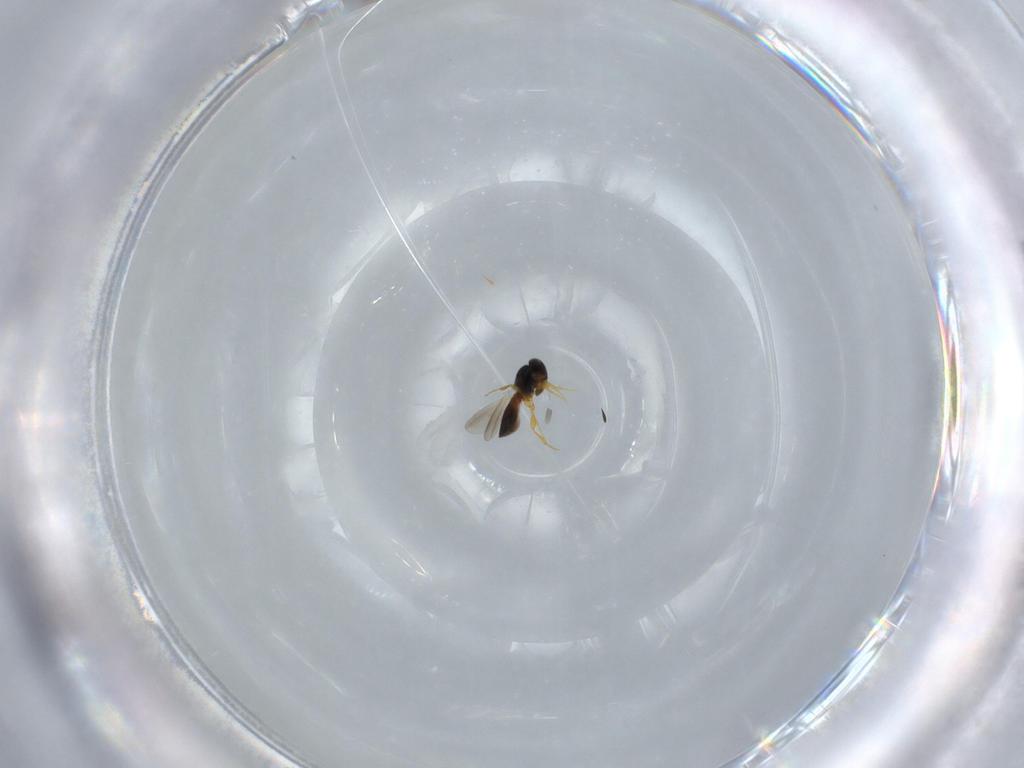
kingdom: Animalia
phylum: Arthropoda
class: Insecta
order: Hymenoptera
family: Platygastridae
